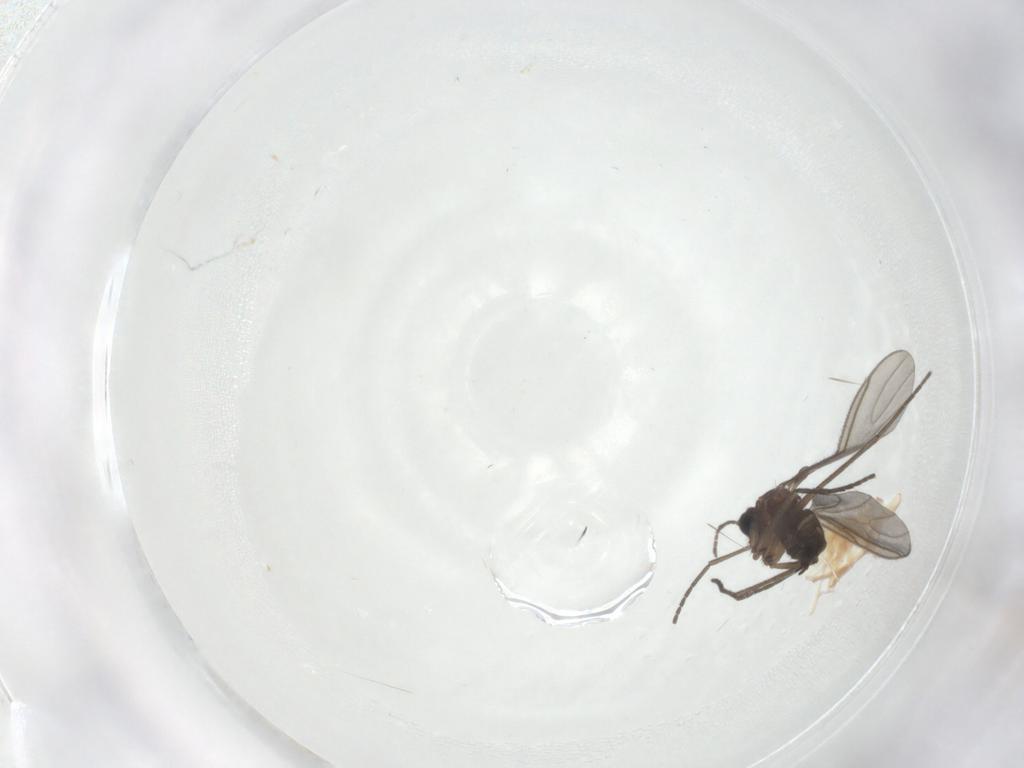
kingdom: Animalia
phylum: Arthropoda
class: Insecta
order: Diptera
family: Sciaridae
